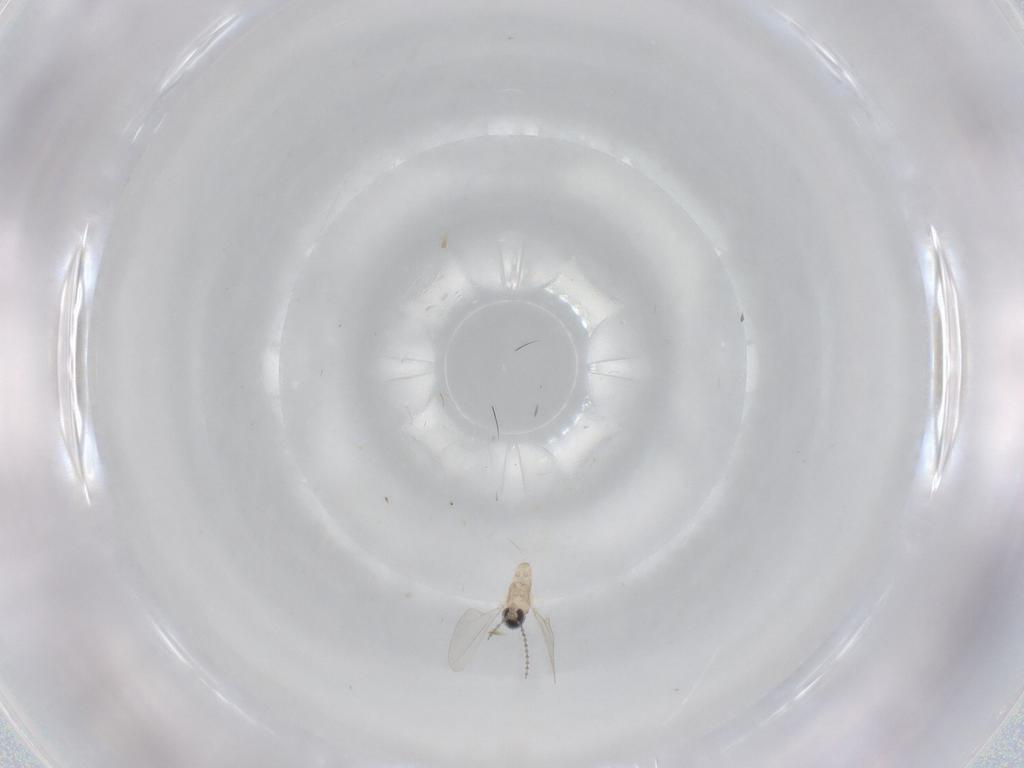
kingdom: Animalia
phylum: Arthropoda
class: Insecta
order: Diptera
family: Cecidomyiidae
